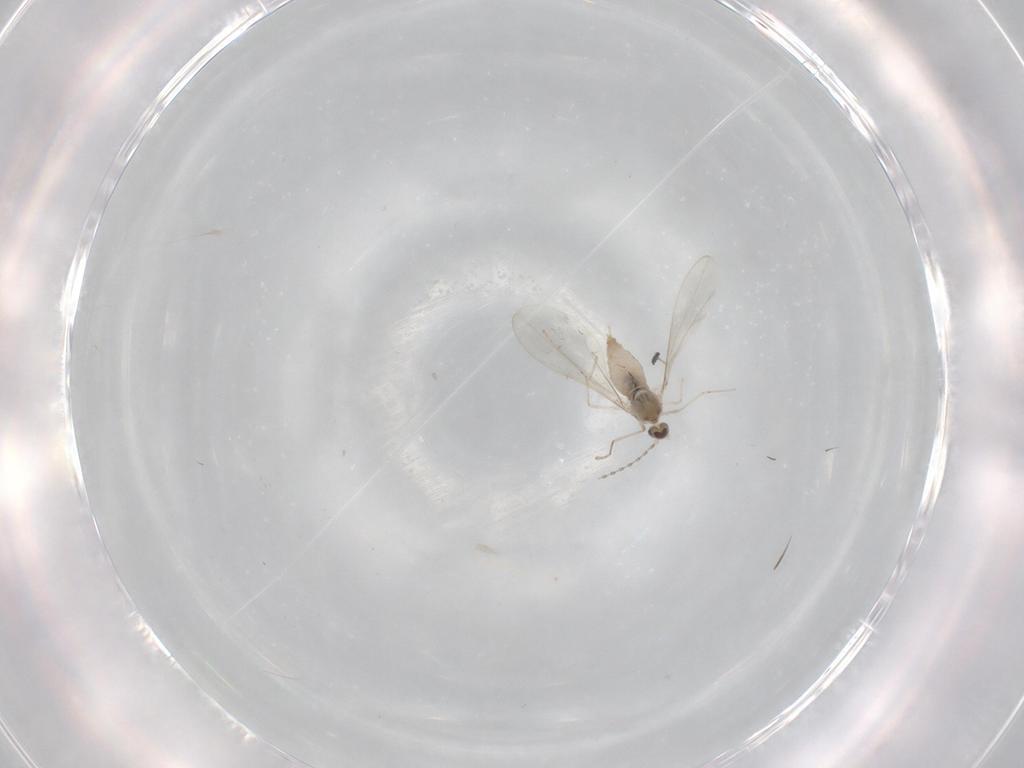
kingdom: Animalia
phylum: Arthropoda
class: Insecta
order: Diptera
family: Cecidomyiidae
